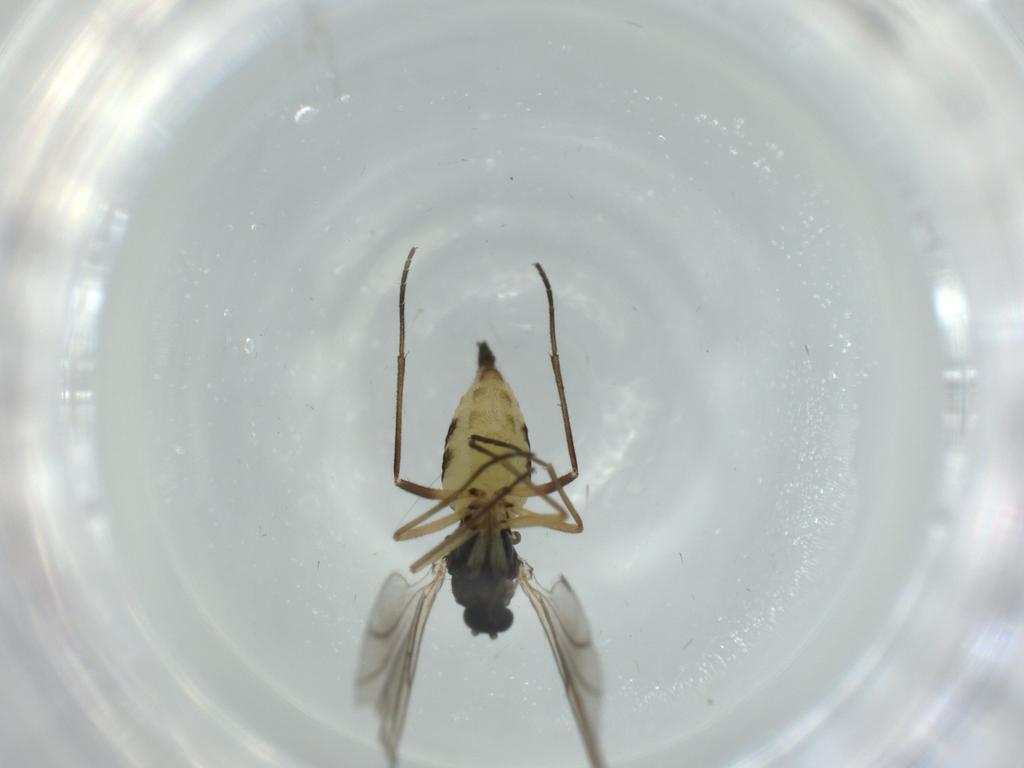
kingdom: Animalia
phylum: Arthropoda
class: Insecta
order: Diptera
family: Sciaridae
